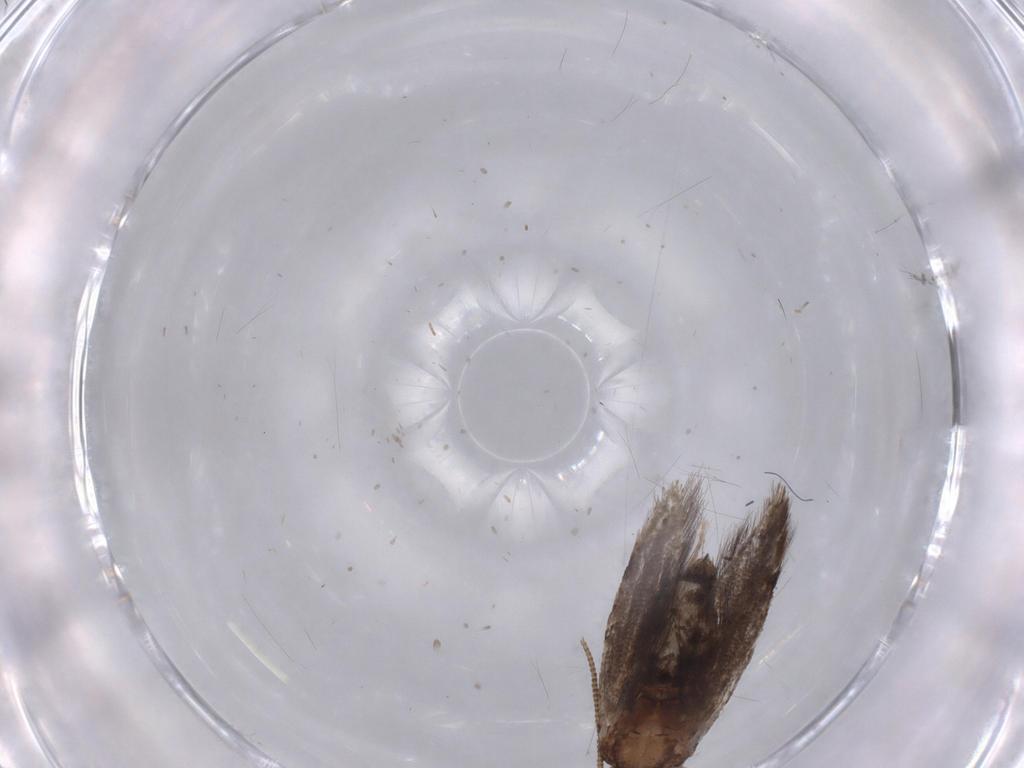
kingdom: Animalia
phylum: Arthropoda
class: Insecta
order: Lepidoptera
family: Meessiidae
